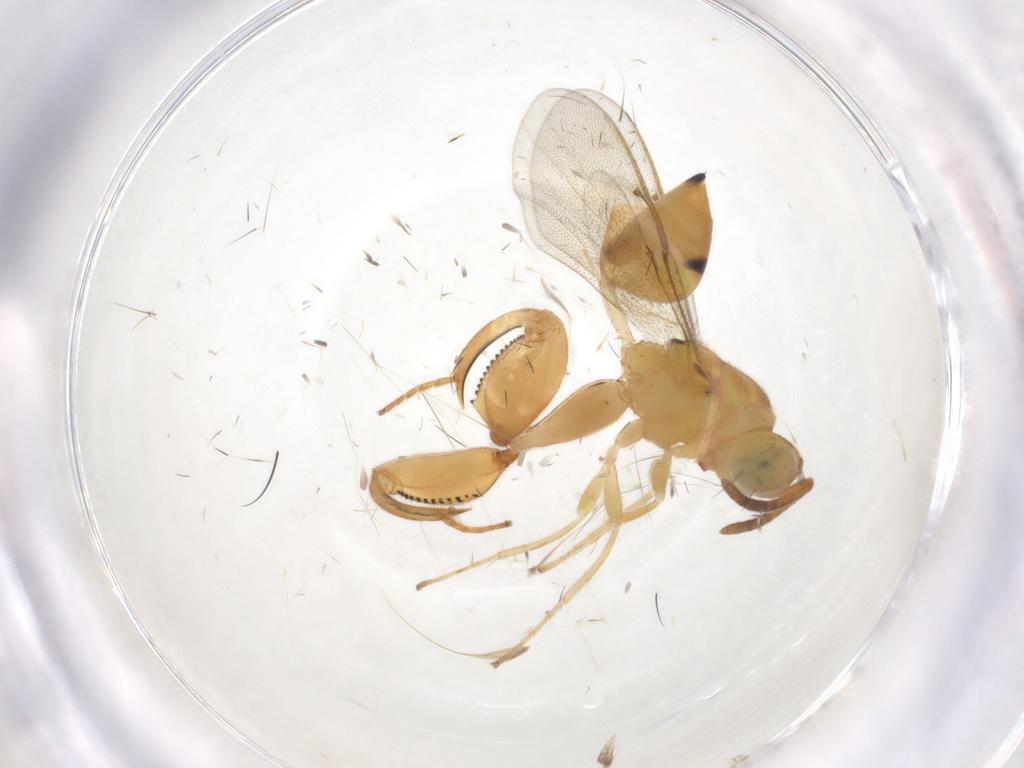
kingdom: Animalia
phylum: Arthropoda
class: Insecta
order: Hymenoptera
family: Chalcididae
